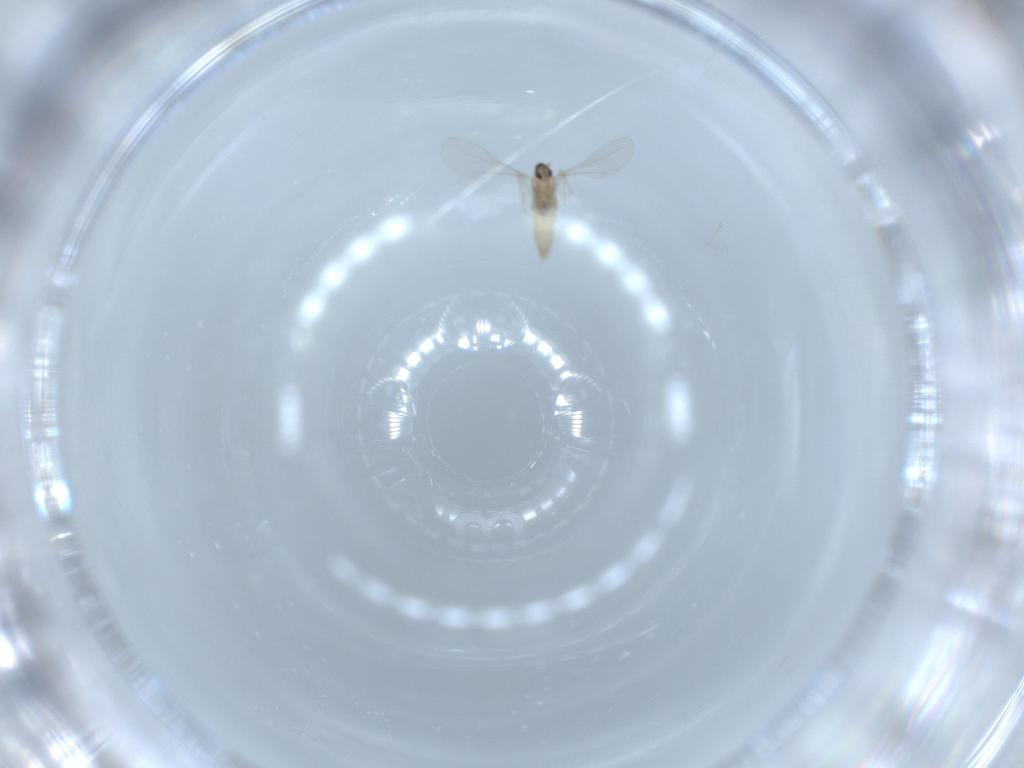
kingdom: Animalia
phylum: Arthropoda
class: Insecta
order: Diptera
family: Cecidomyiidae
